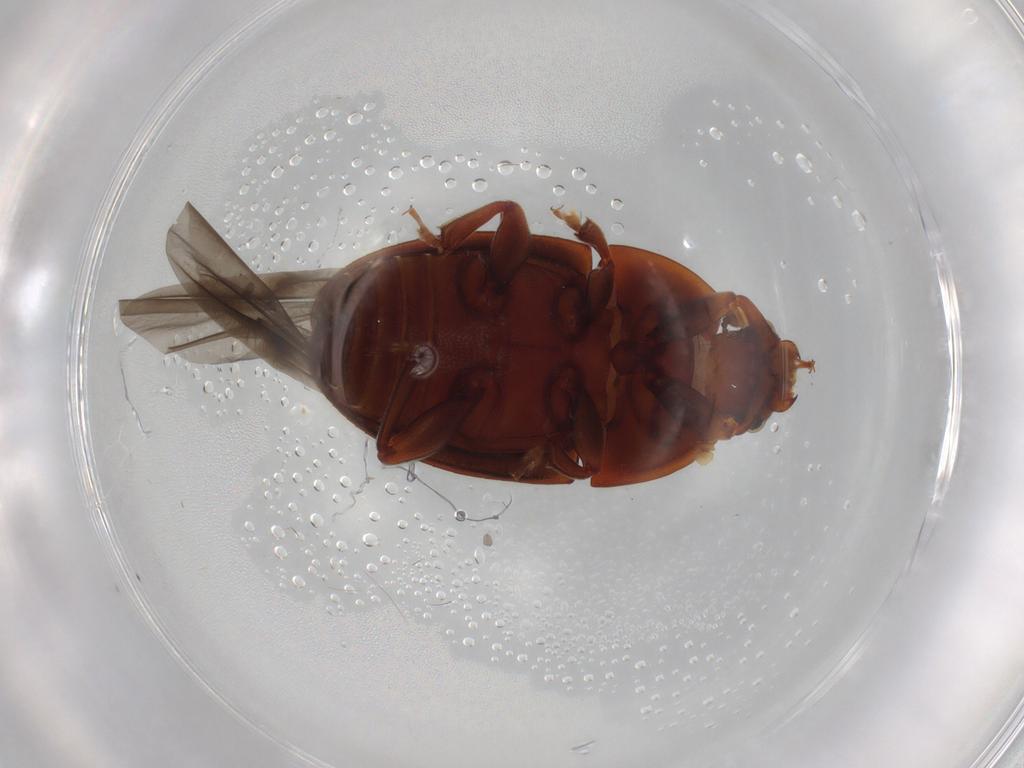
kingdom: Animalia
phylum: Arthropoda
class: Insecta
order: Coleoptera
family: Nitidulidae
